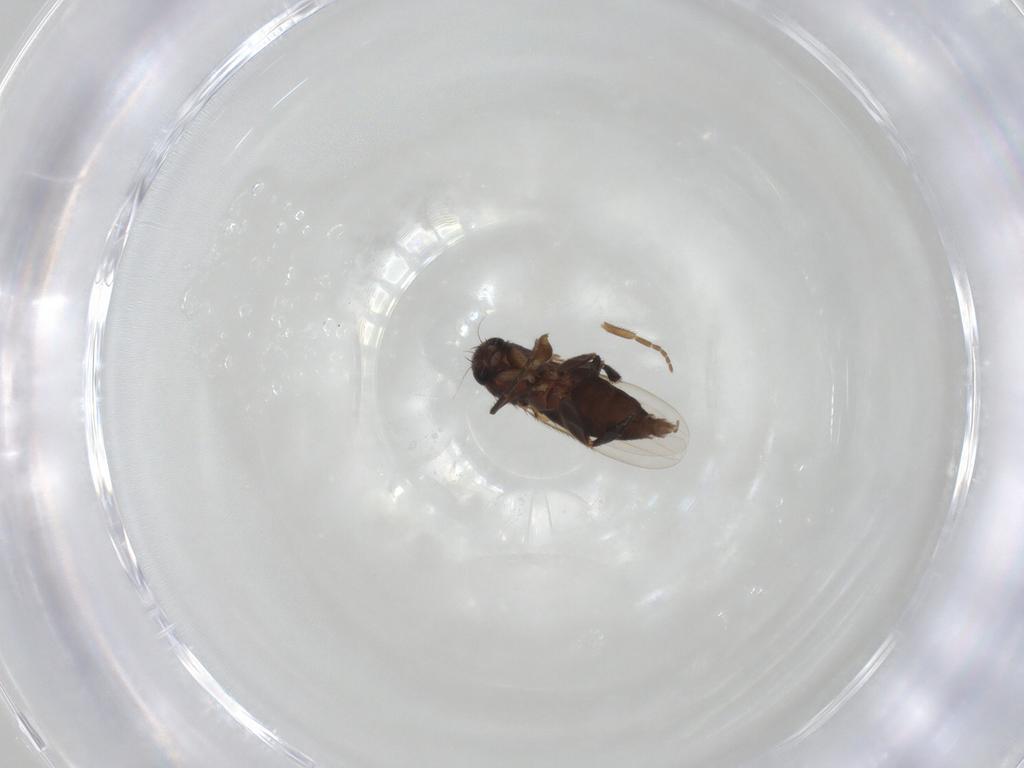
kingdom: Animalia
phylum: Arthropoda
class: Insecta
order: Diptera
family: Phoridae
